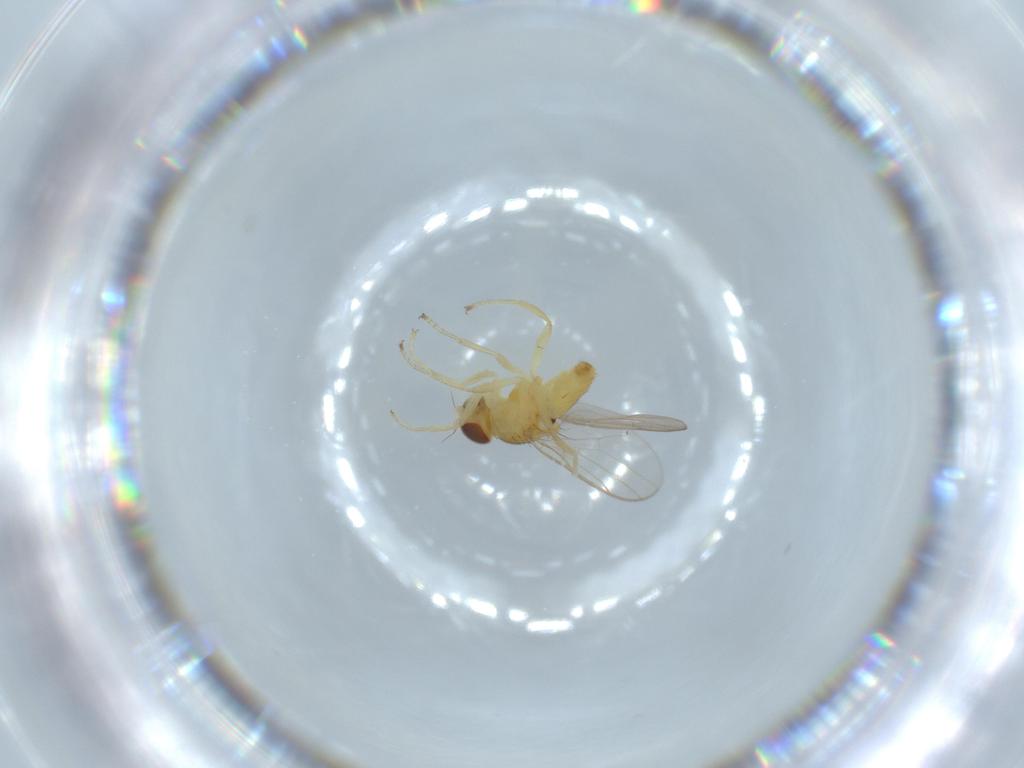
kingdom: Animalia
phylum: Arthropoda
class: Insecta
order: Diptera
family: Chloropidae
